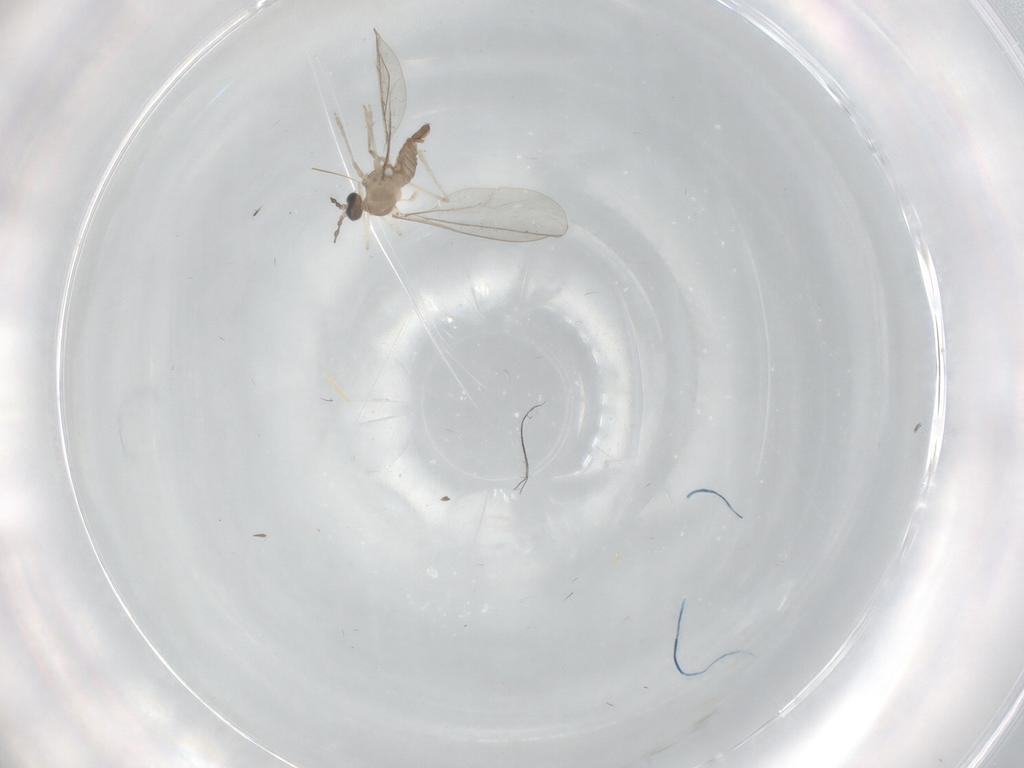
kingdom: Animalia
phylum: Arthropoda
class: Insecta
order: Diptera
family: Cecidomyiidae
